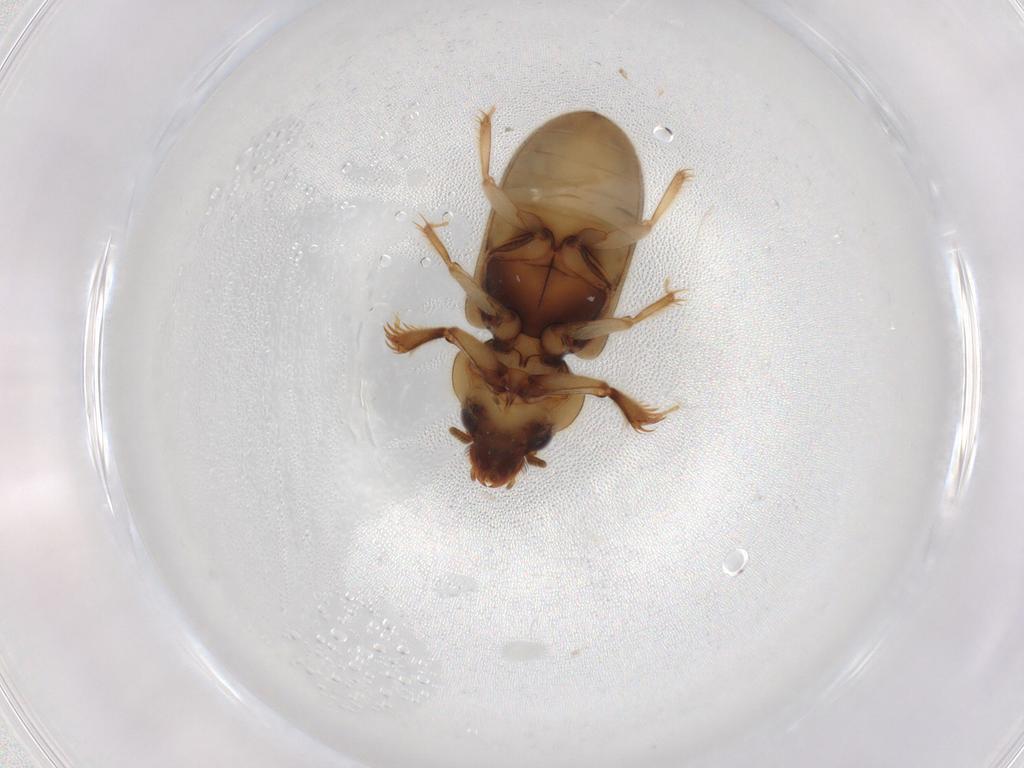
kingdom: Animalia
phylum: Arthropoda
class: Insecta
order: Coleoptera
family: Heteroceridae
